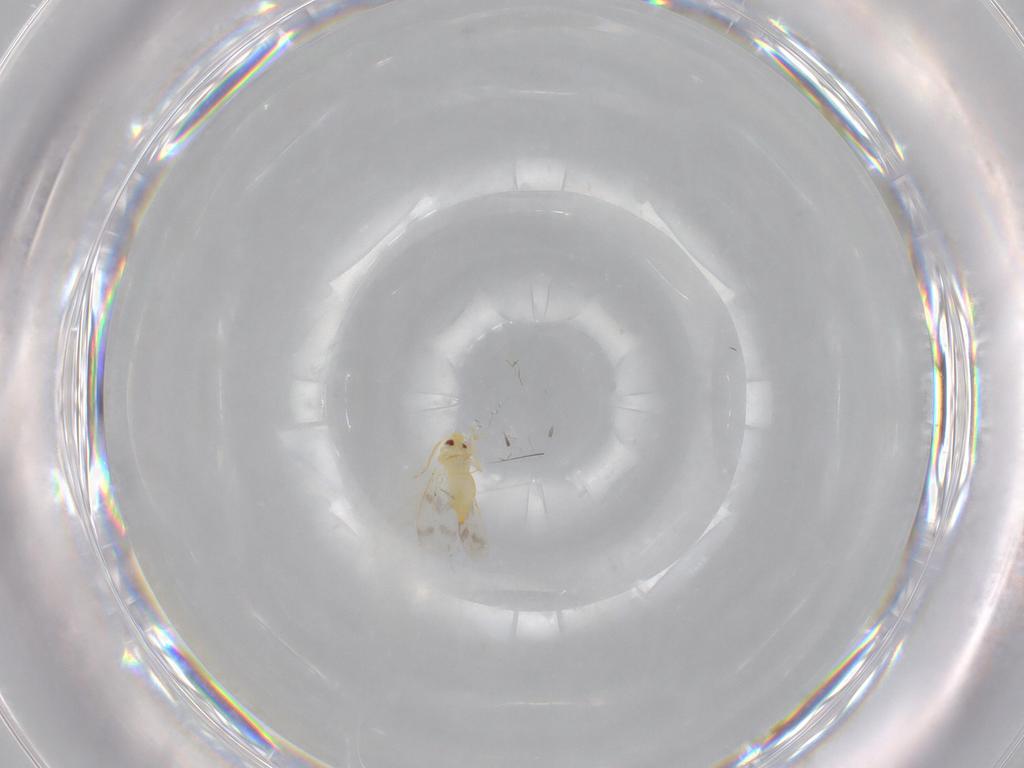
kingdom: Animalia
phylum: Arthropoda
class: Insecta
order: Hemiptera
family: Aleyrodidae
